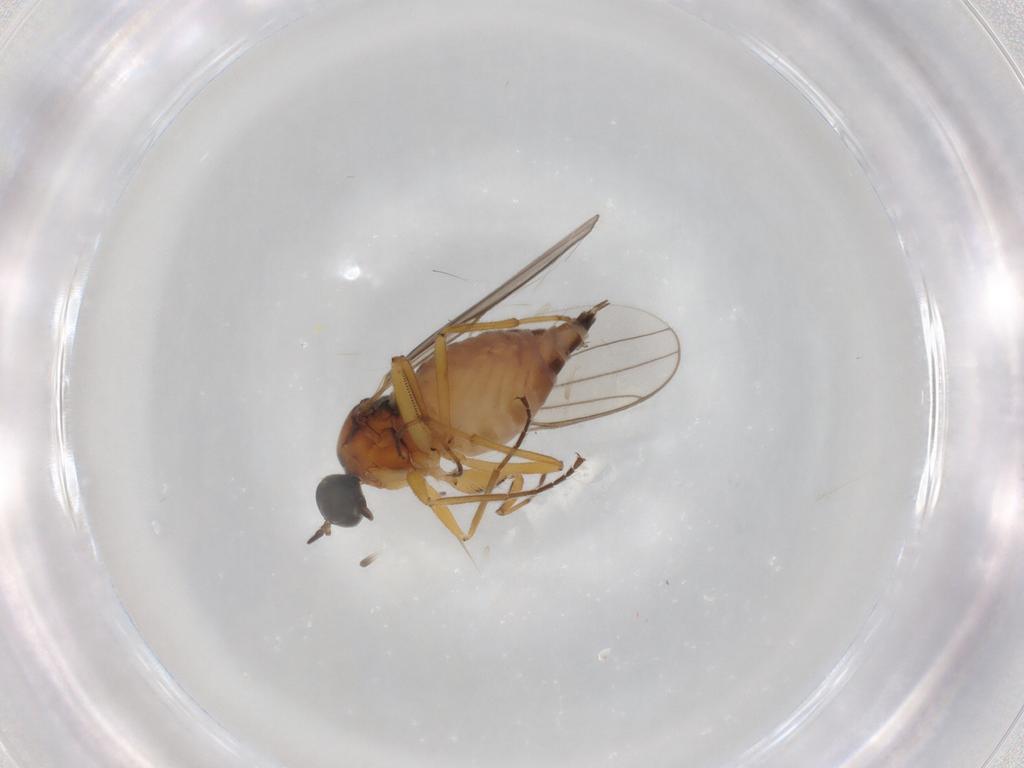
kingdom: Animalia
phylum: Arthropoda
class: Insecta
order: Diptera
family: Hybotidae
